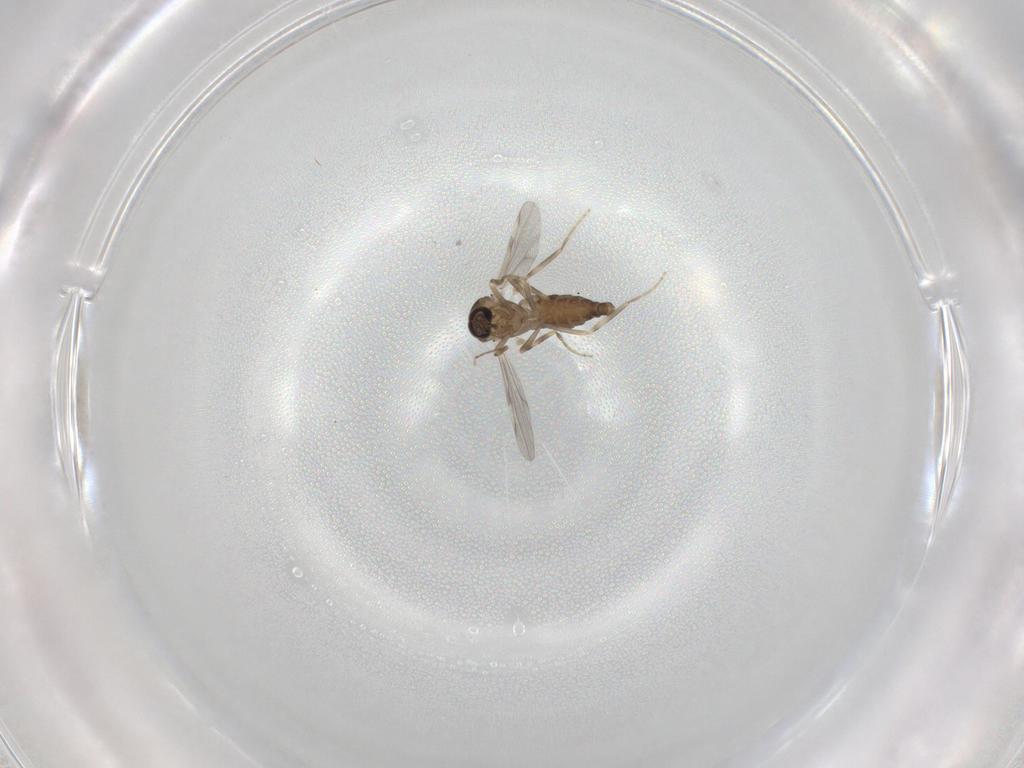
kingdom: Animalia
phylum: Arthropoda
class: Insecta
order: Diptera
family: Ceratopogonidae
